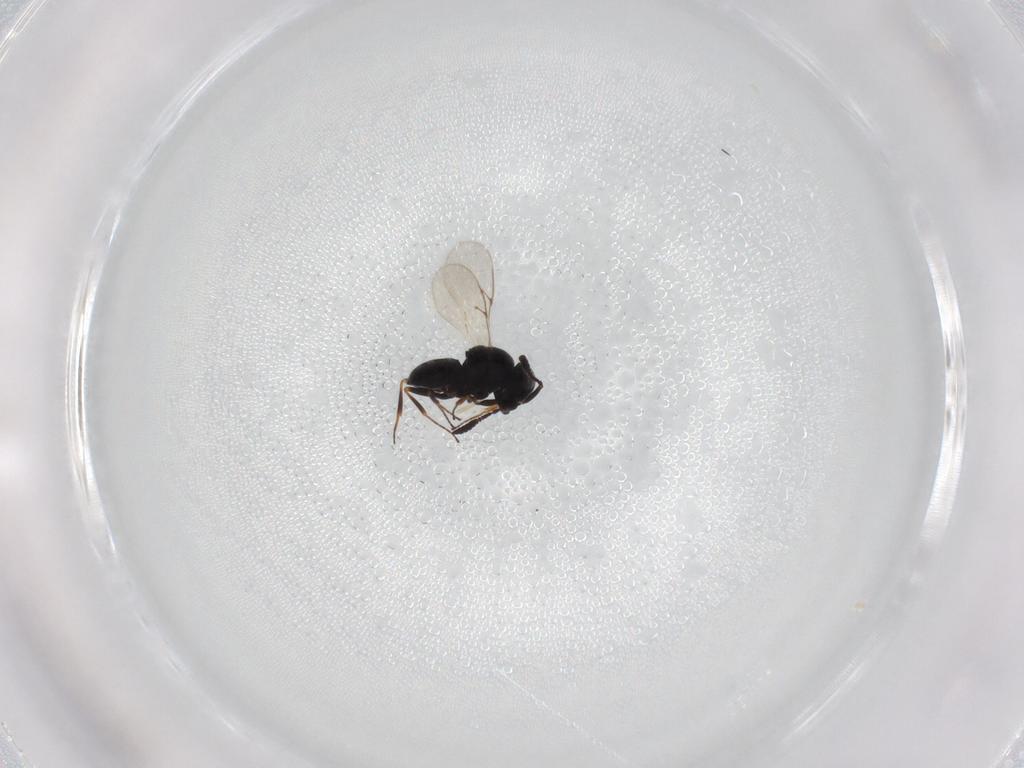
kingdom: Animalia
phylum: Arthropoda
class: Insecta
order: Hymenoptera
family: Scelionidae
